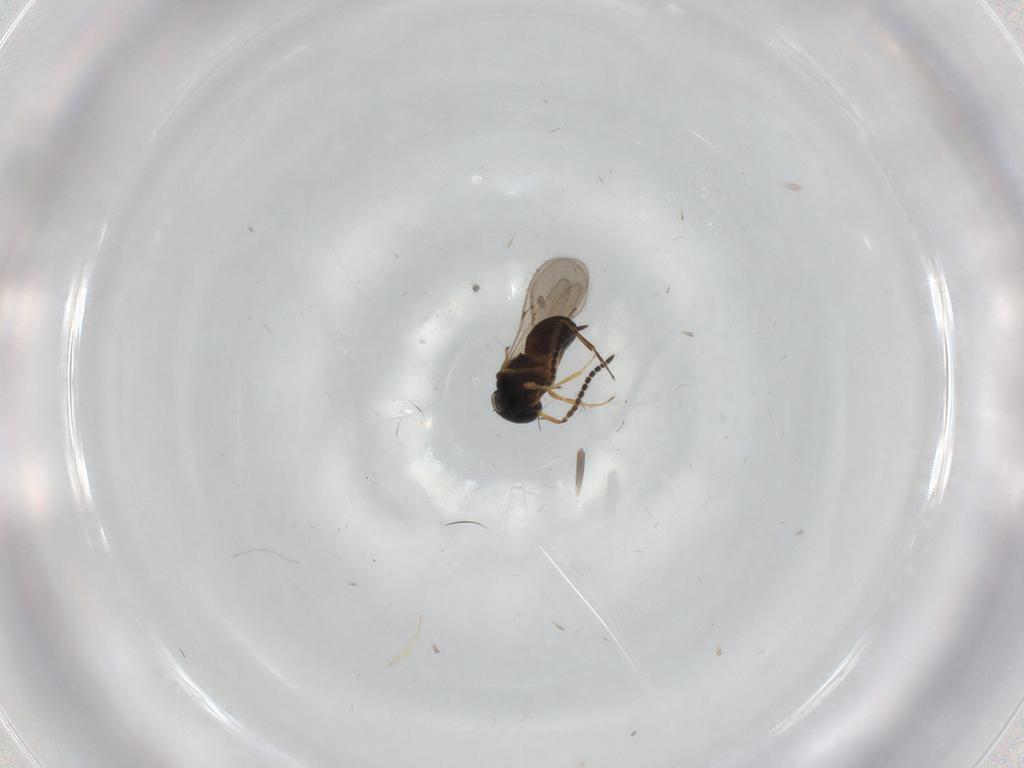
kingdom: Animalia
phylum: Arthropoda
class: Insecta
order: Hymenoptera
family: Scelionidae
